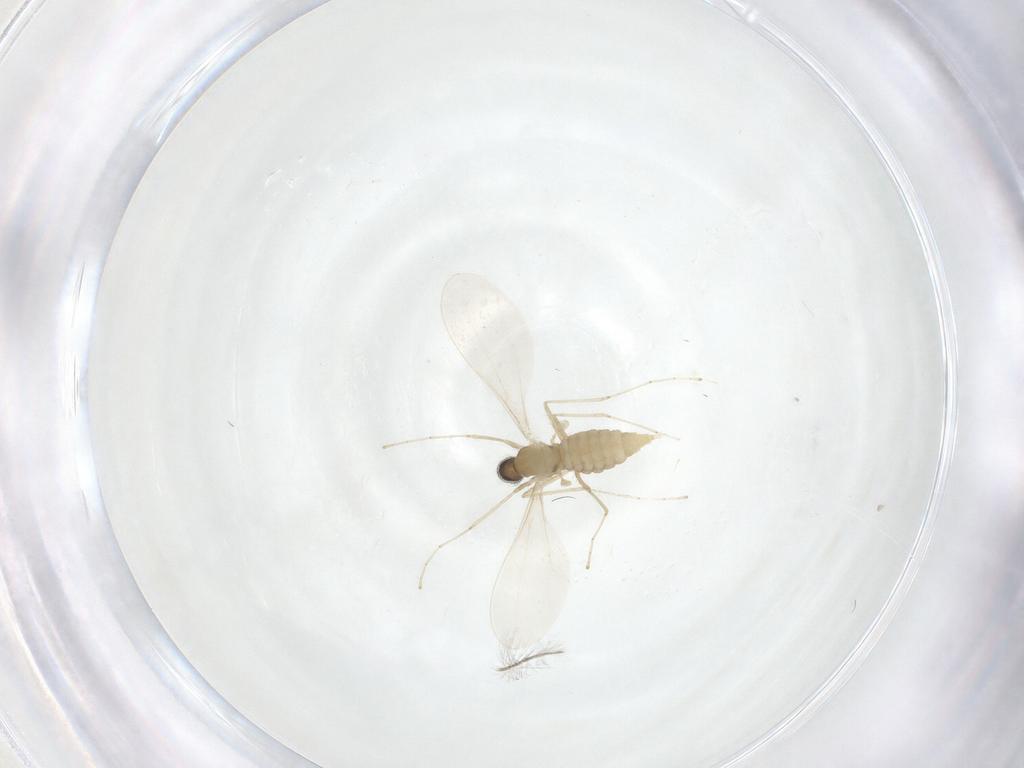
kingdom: Animalia
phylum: Arthropoda
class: Insecta
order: Diptera
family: Cecidomyiidae
